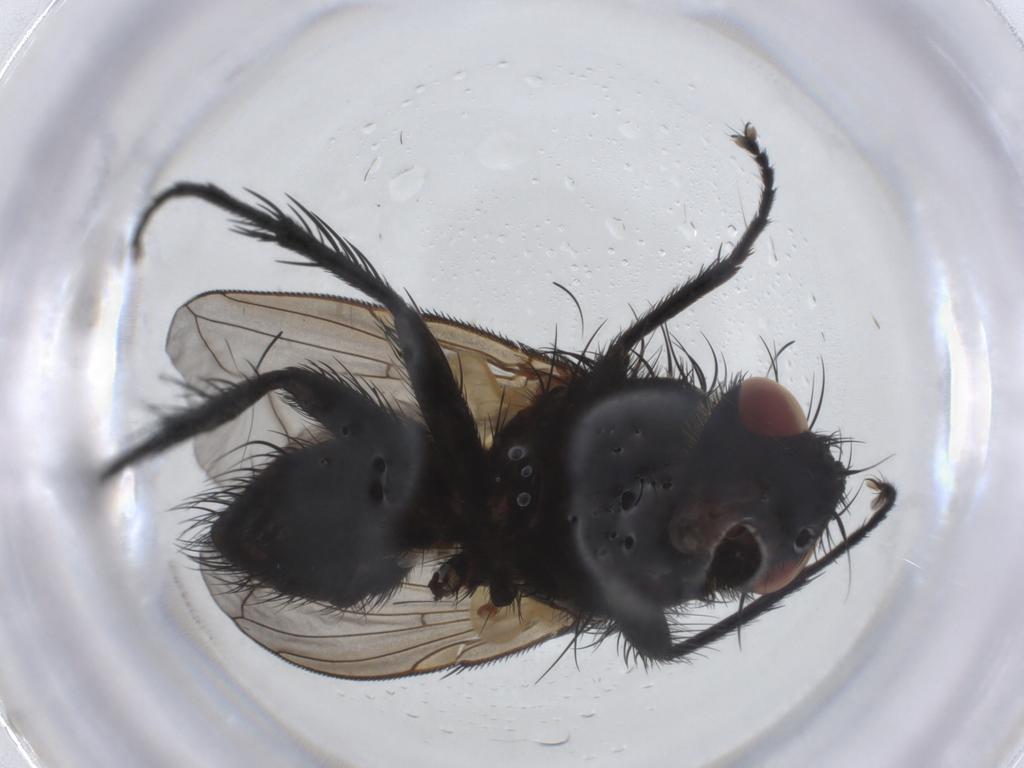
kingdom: Animalia
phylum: Arthropoda
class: Insecta
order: Diptera
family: Tachinidae
